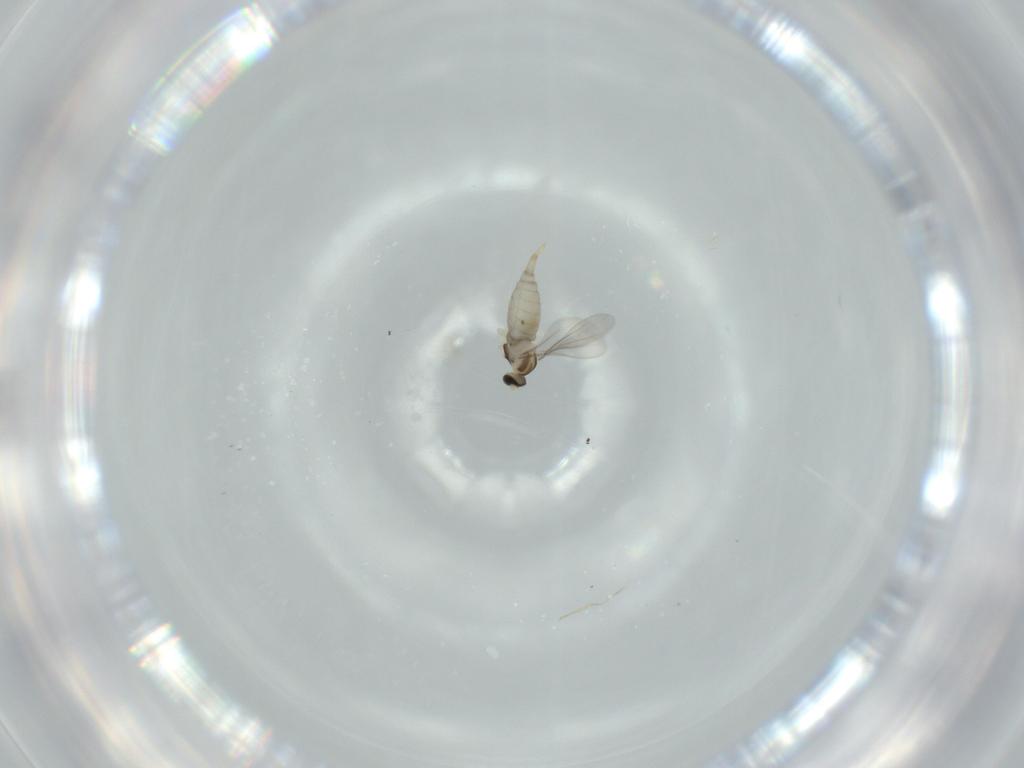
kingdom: Animalia
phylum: Arthropoda
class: Insecta
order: Diptera
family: Cecidomyiidae
